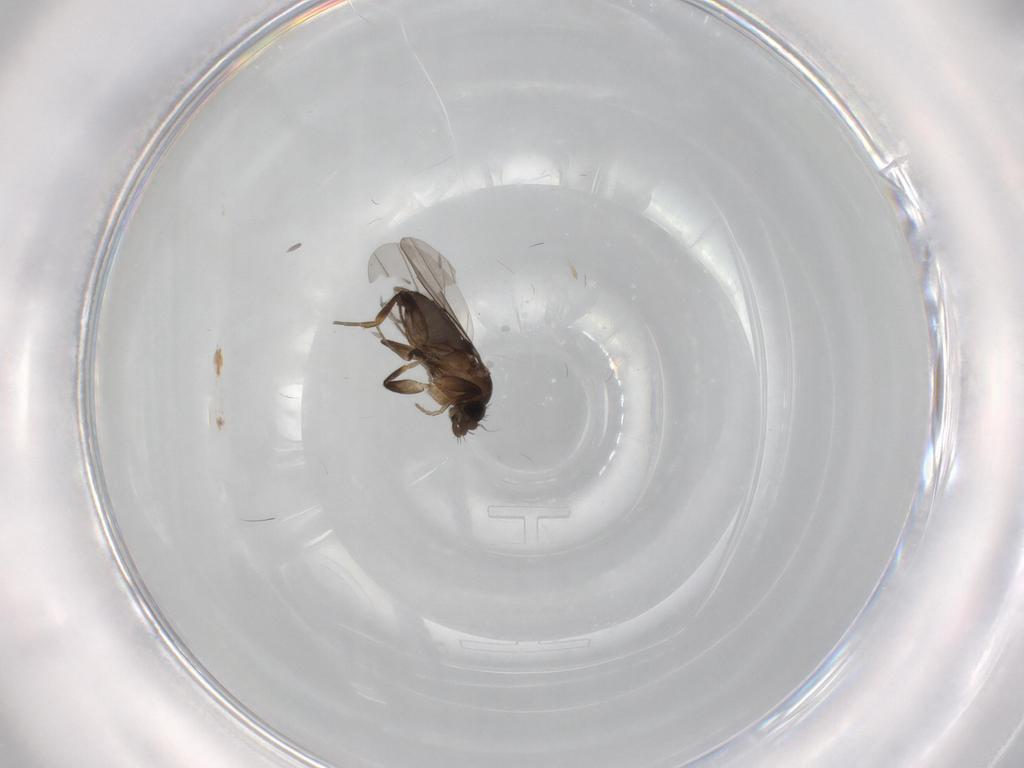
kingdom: Animalia
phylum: Arthropoda
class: Insecta
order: Diptera
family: Phoridae
